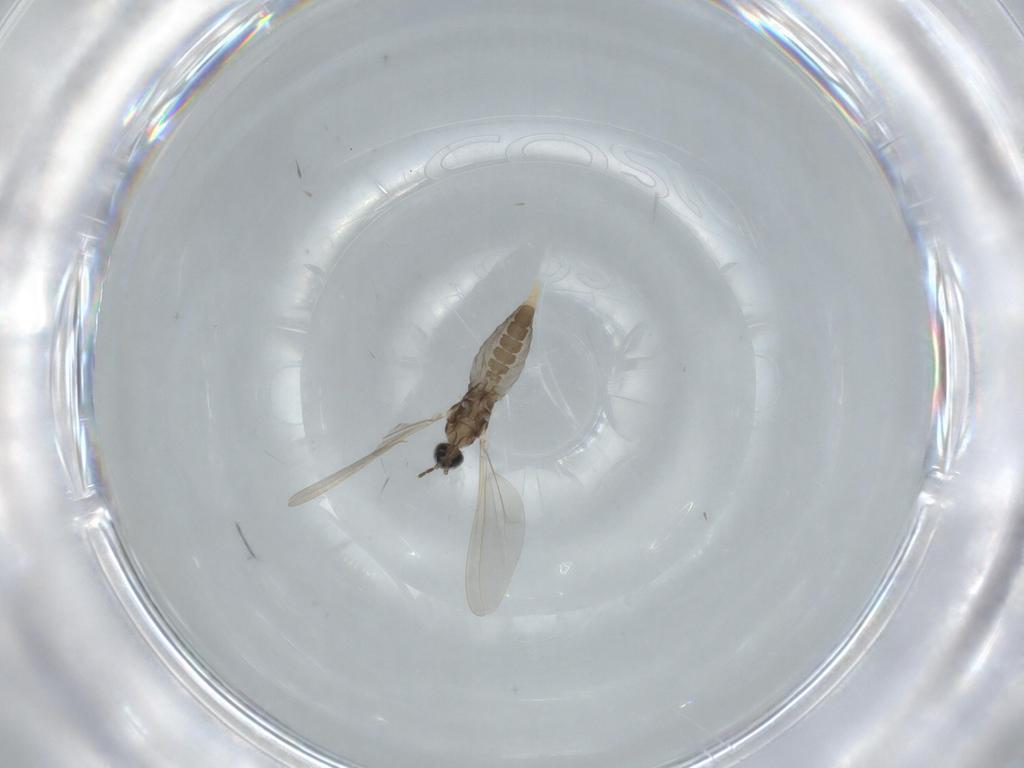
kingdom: Animalia
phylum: Arthropoda
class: Insecta
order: Diptera
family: Cecidomyiidae
